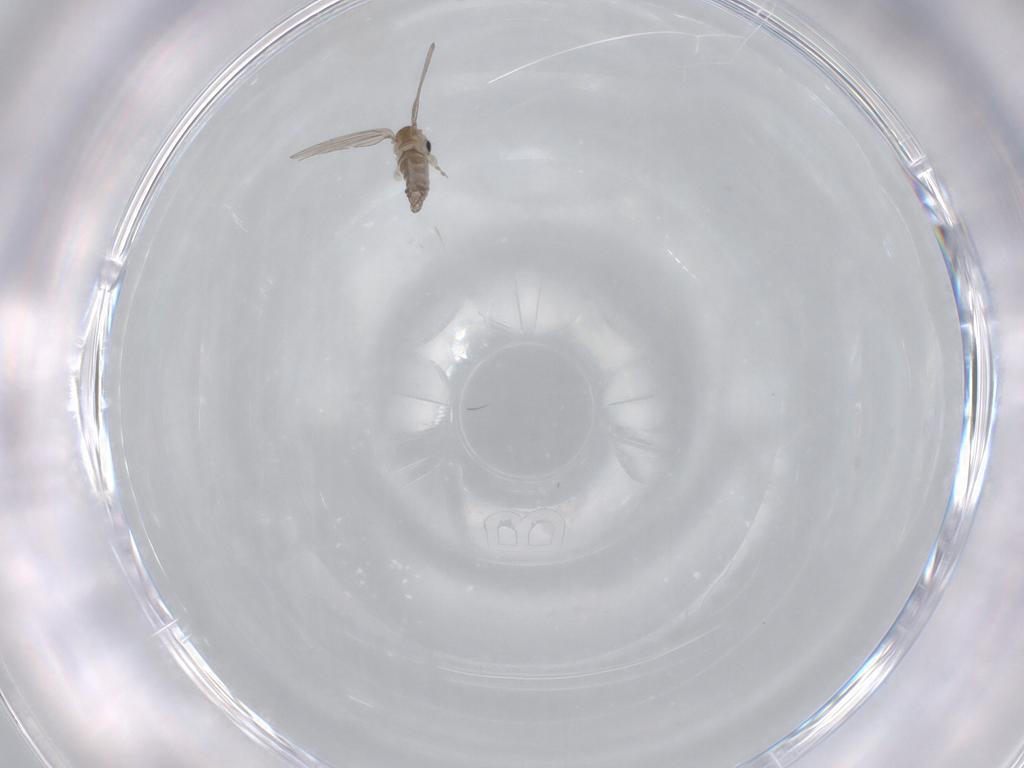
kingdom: Animalia
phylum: Arthropoda
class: Insecta
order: Diptera
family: Psychodidae
